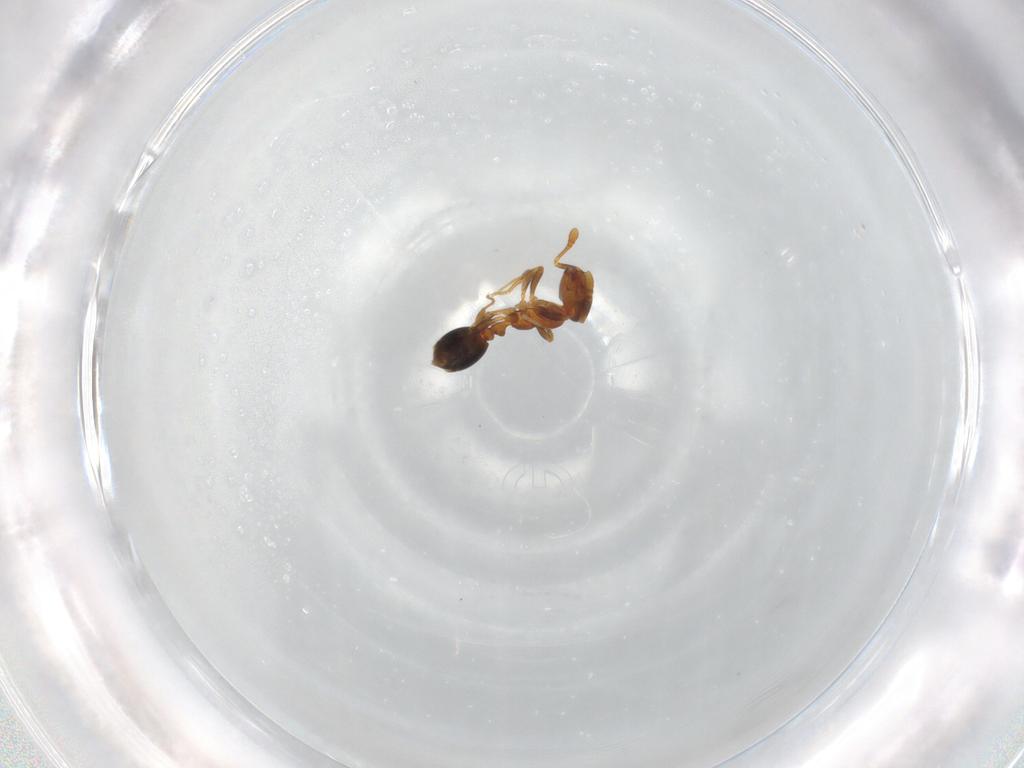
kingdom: Animalia
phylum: Arthropoda
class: Insecta
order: Hymenoptera
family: Formicidae
